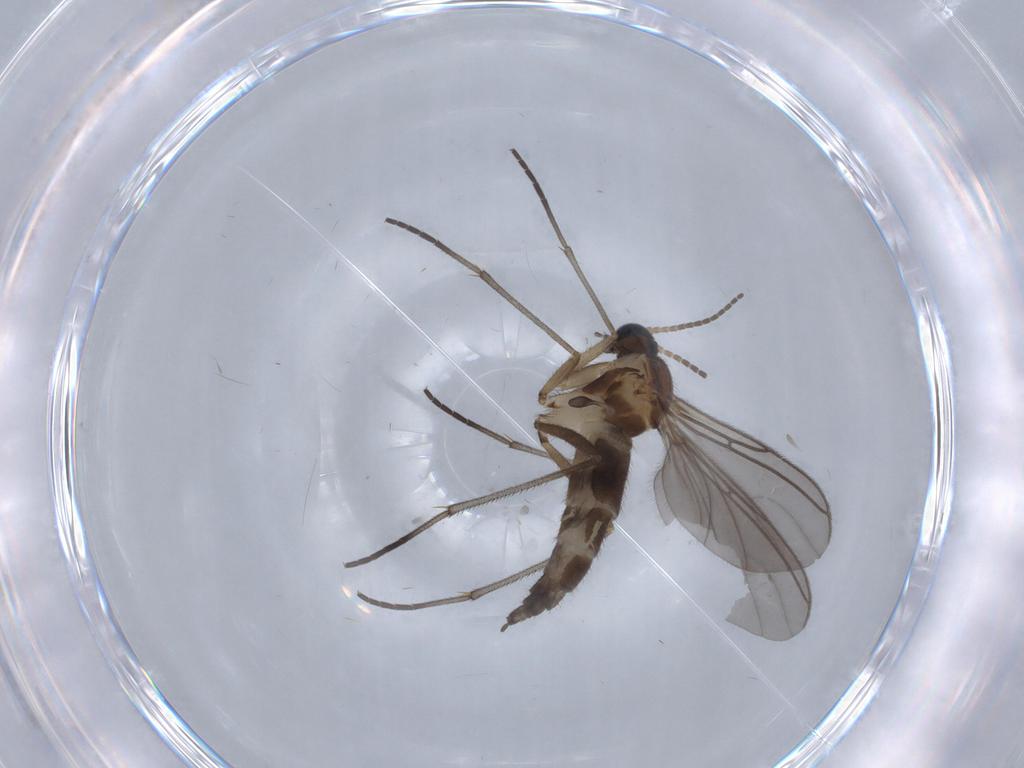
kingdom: Animalia
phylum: Arthropoda
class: Insecta
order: Diptera
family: Sciaridae
